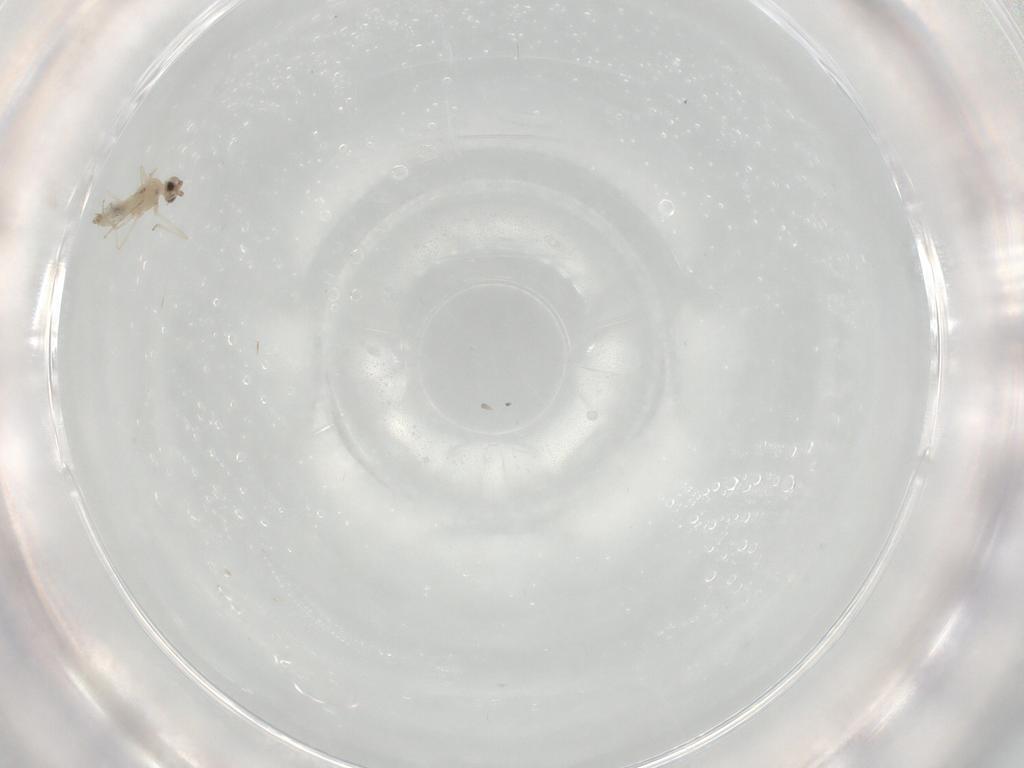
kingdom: Animalia
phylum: Arthropoda
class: Insecta
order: Diptera
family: Cecidomyiidae
